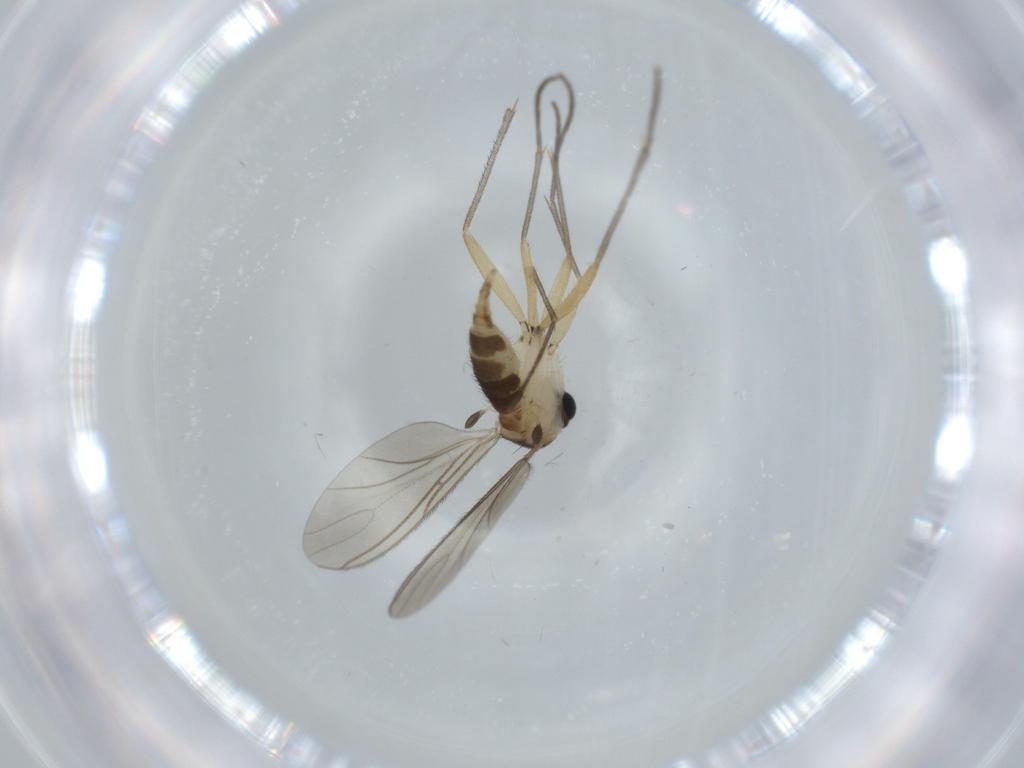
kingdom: Animalia
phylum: Arthropoda
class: Insecta
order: Diptera
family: Sciaridae
